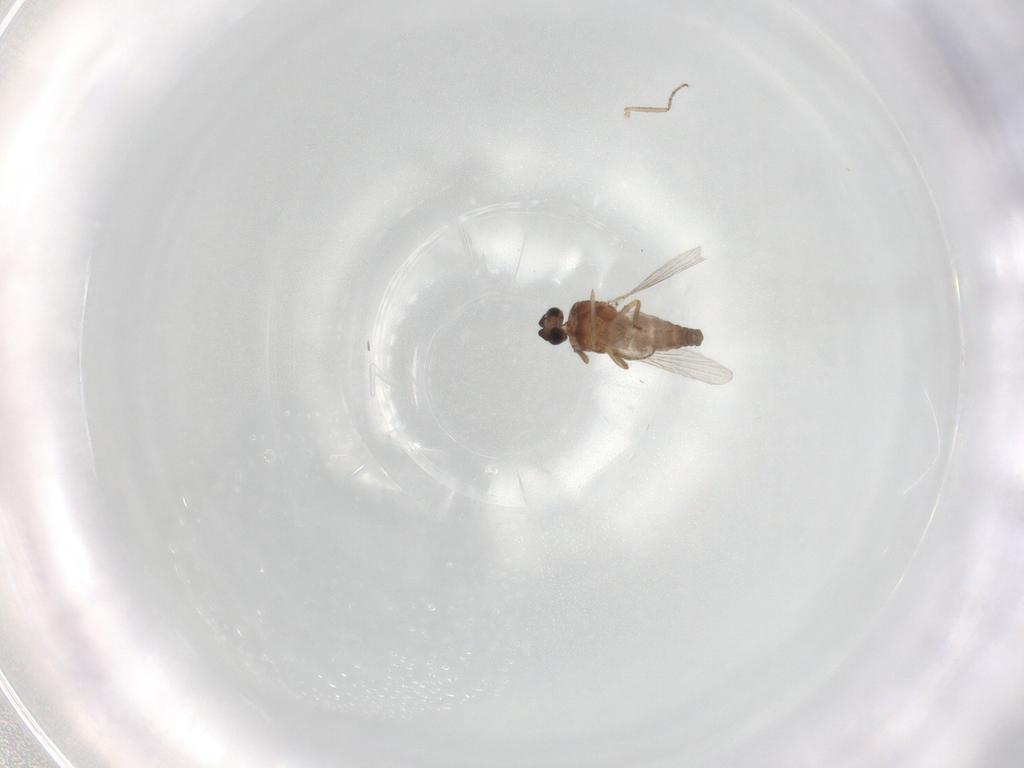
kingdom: Animalia
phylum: Arthropoda
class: Insecta
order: Diptera
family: Ceratopogonidae
